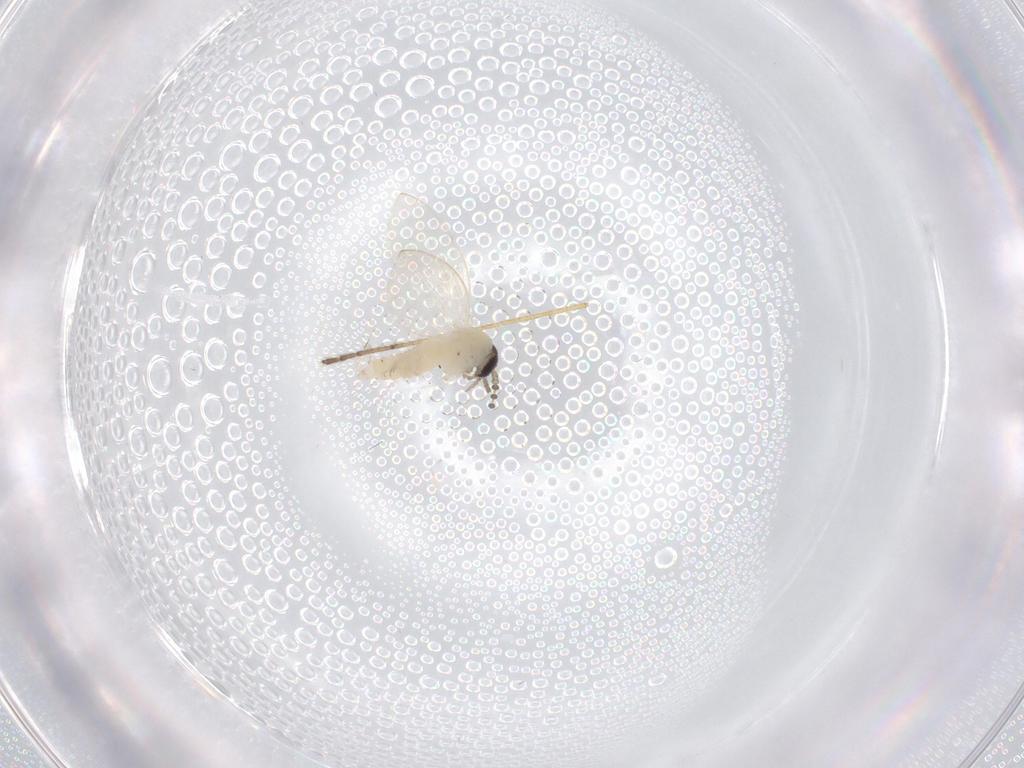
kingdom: Animalia
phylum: Arthropoda
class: Insecta
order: Diptera
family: Psychodidae
